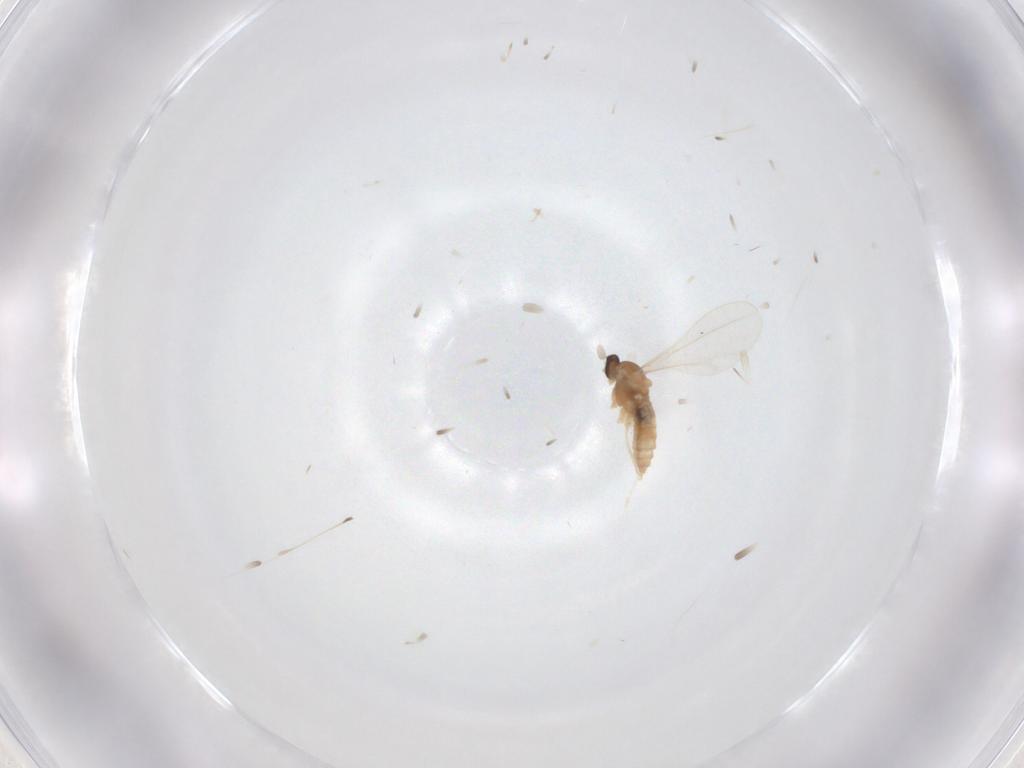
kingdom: Animalia
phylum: Arthropoda
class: Insecta
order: Diptera
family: Cecidomyiidae
